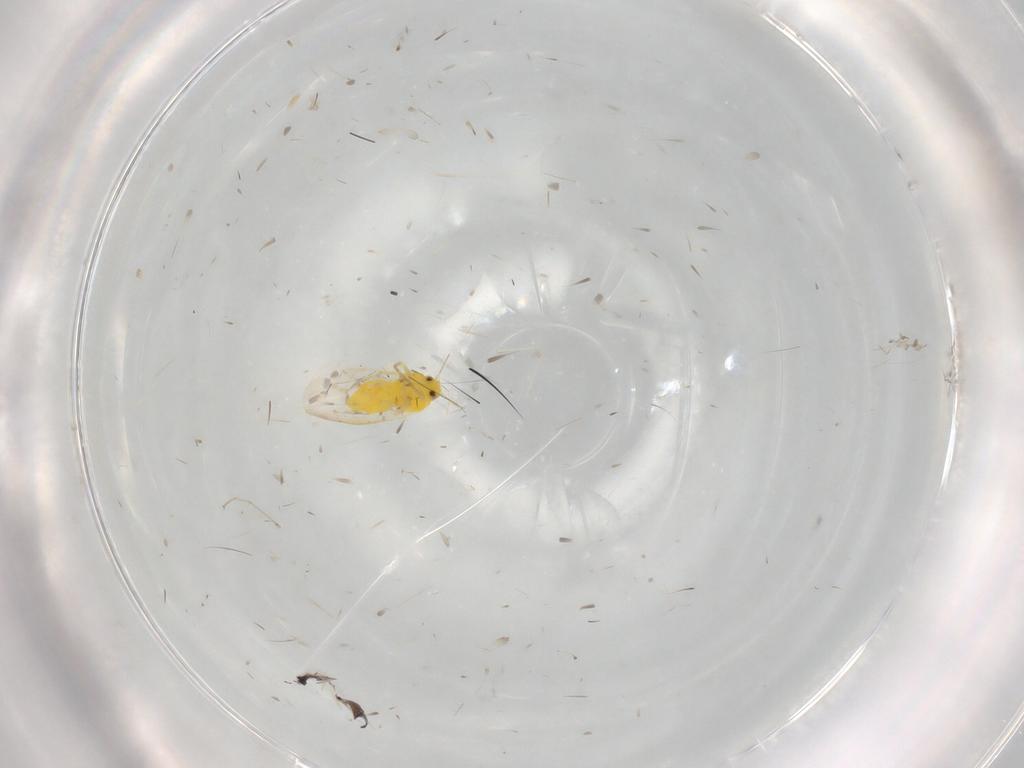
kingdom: Animalia
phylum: Arthropoda
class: Insecta
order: Hemiptera
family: Aleyrodidae
